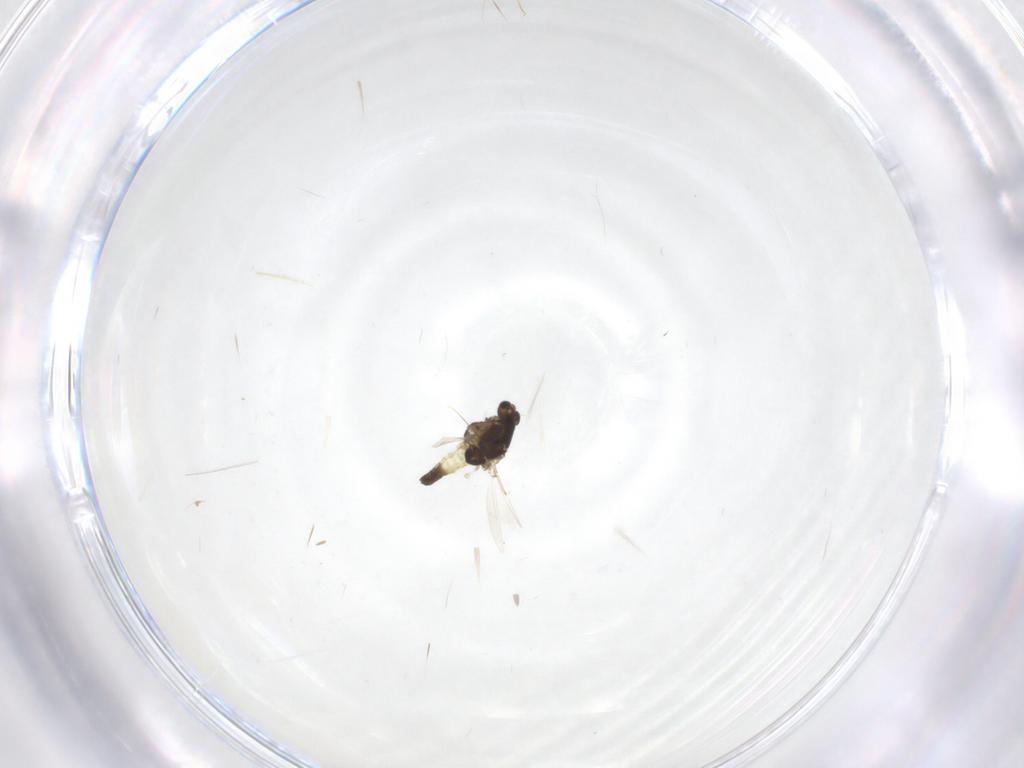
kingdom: Animalia
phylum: Arthropoda
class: Insecta
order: Diptera
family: Chironomidae
